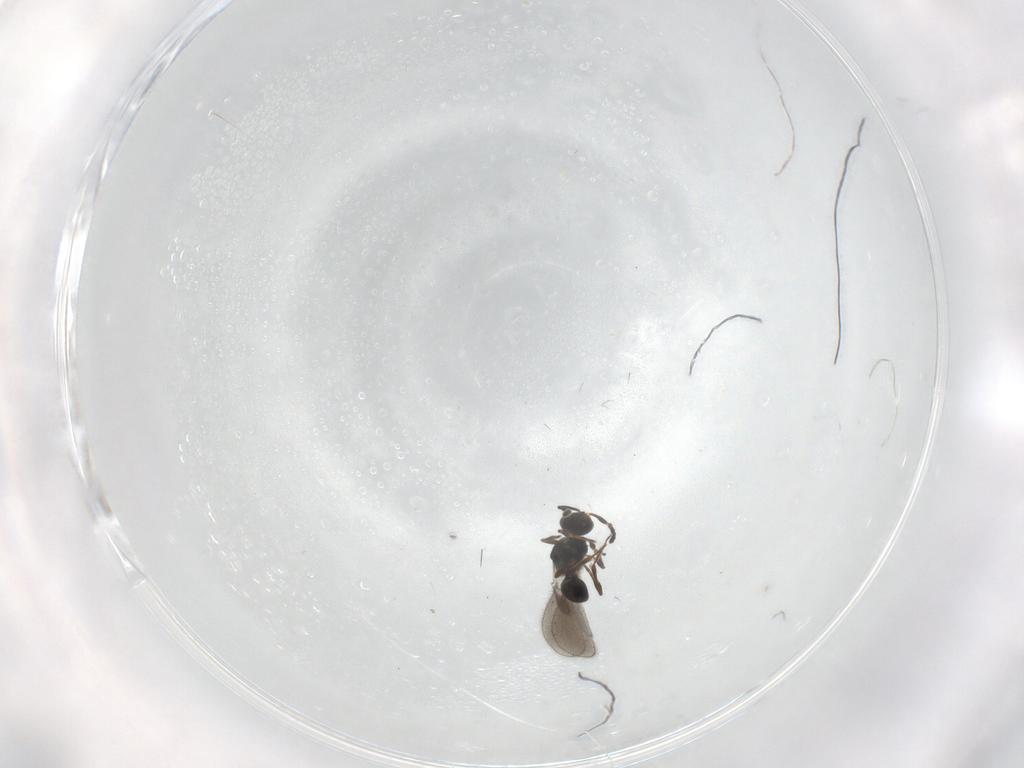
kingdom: Animalia
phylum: Arthropoda
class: Insecta
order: Hymenoptera
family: Platygastridae
